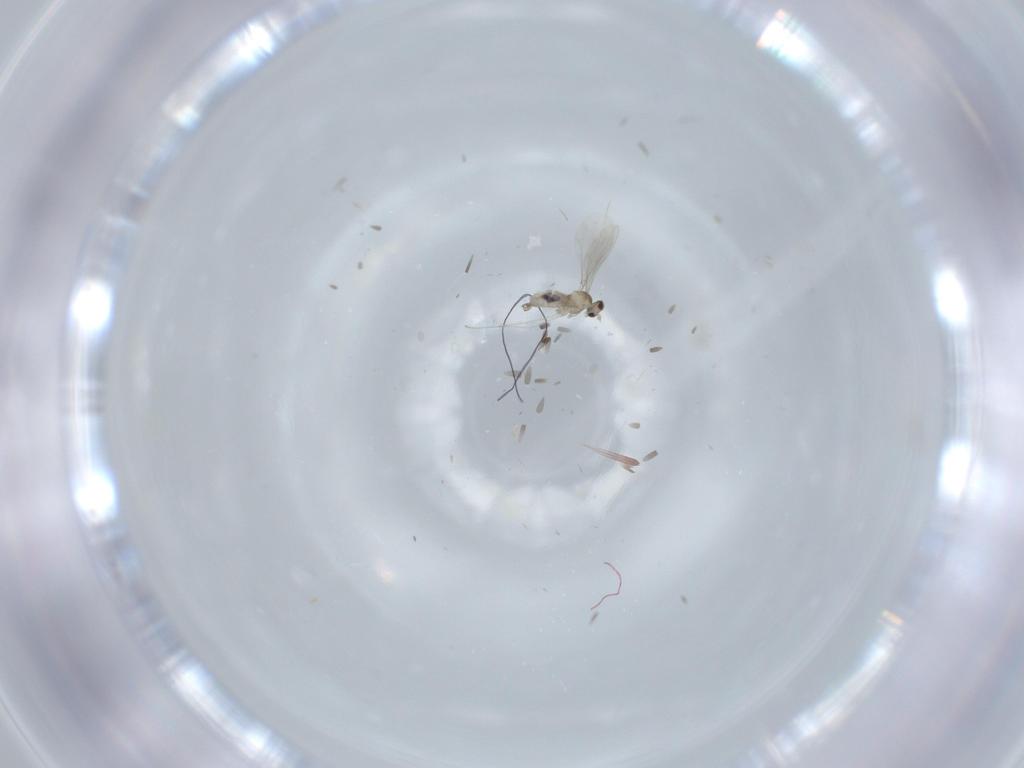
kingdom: Animalia
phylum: Arthropoda
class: Insecta
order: Diptera
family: Cecidomyiidae
